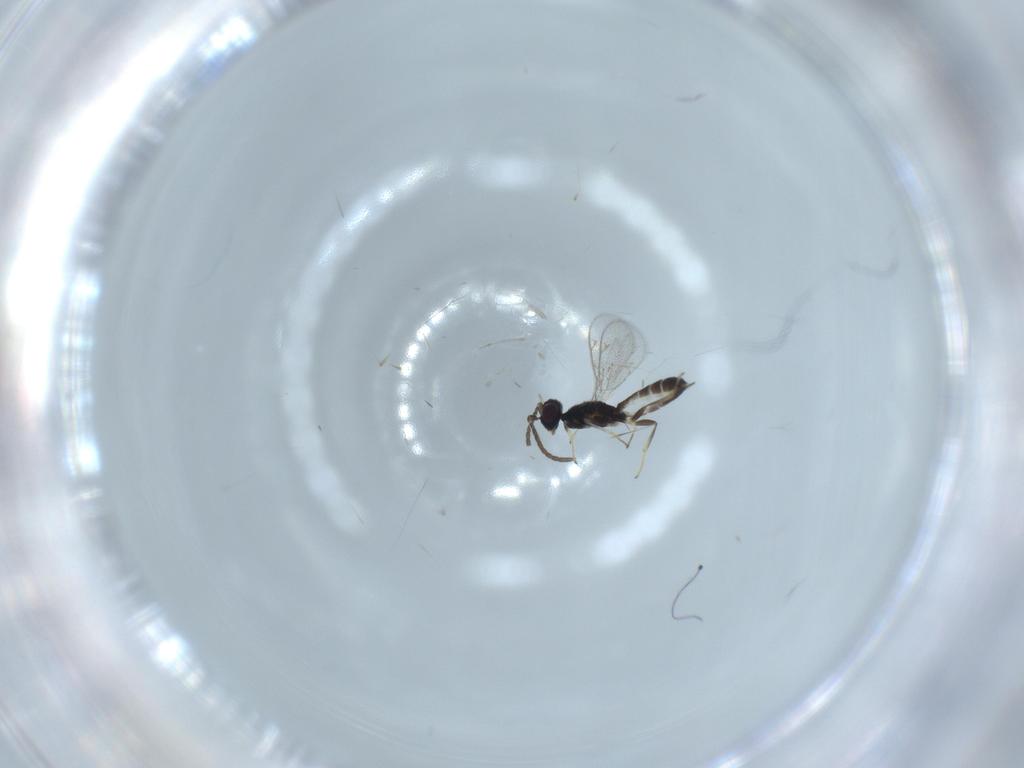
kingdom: Animalia
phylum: Arthropoda
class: Insecta
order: Hymenoptera
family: Eupelmidae
